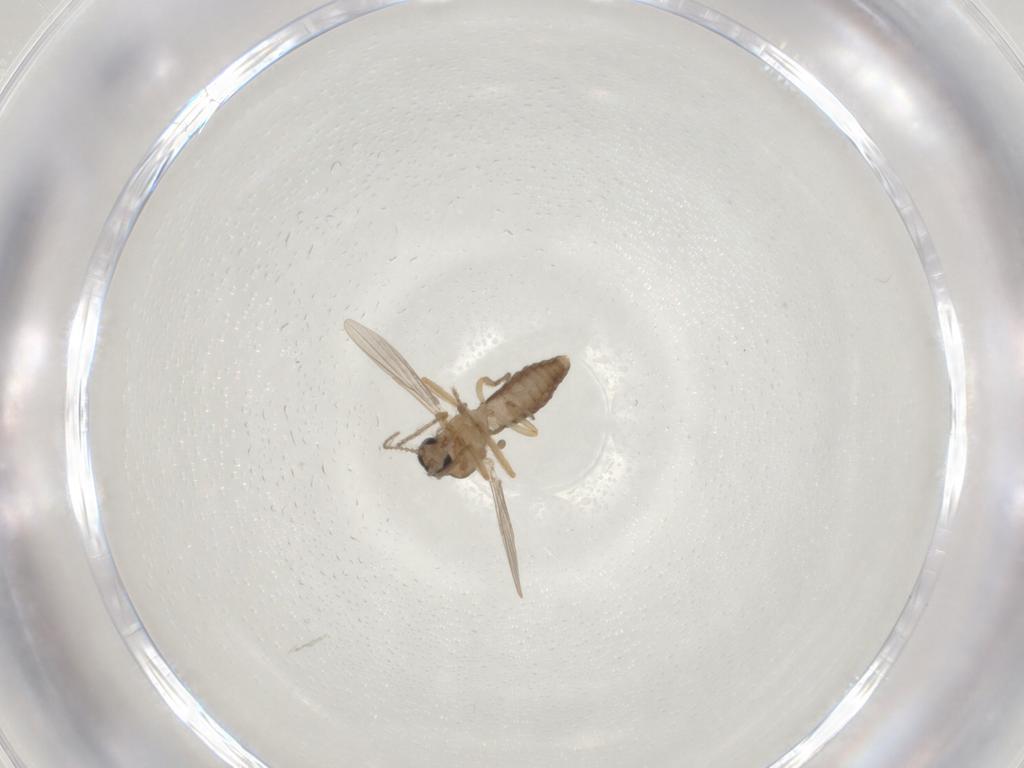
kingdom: Animalia
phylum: Arthropoda
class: Insecta
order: Diptera
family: Ceratopogonidae
